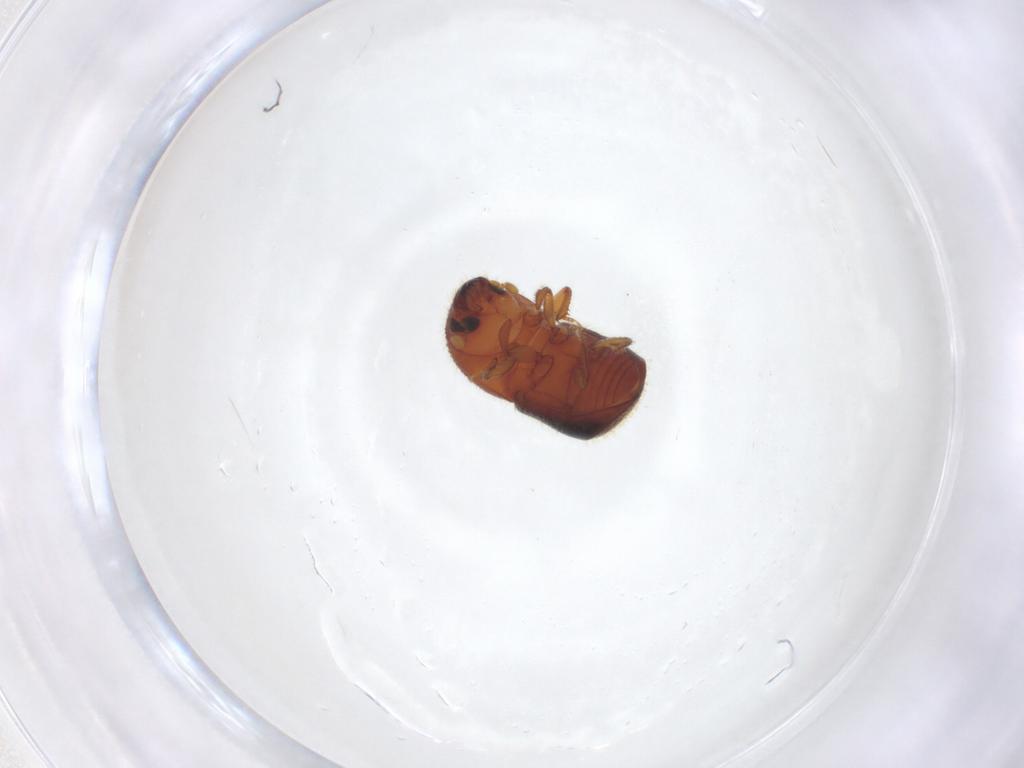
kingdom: Animalia
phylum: Arthropoda
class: Insecta
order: Coleoptera
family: Curculionidae
